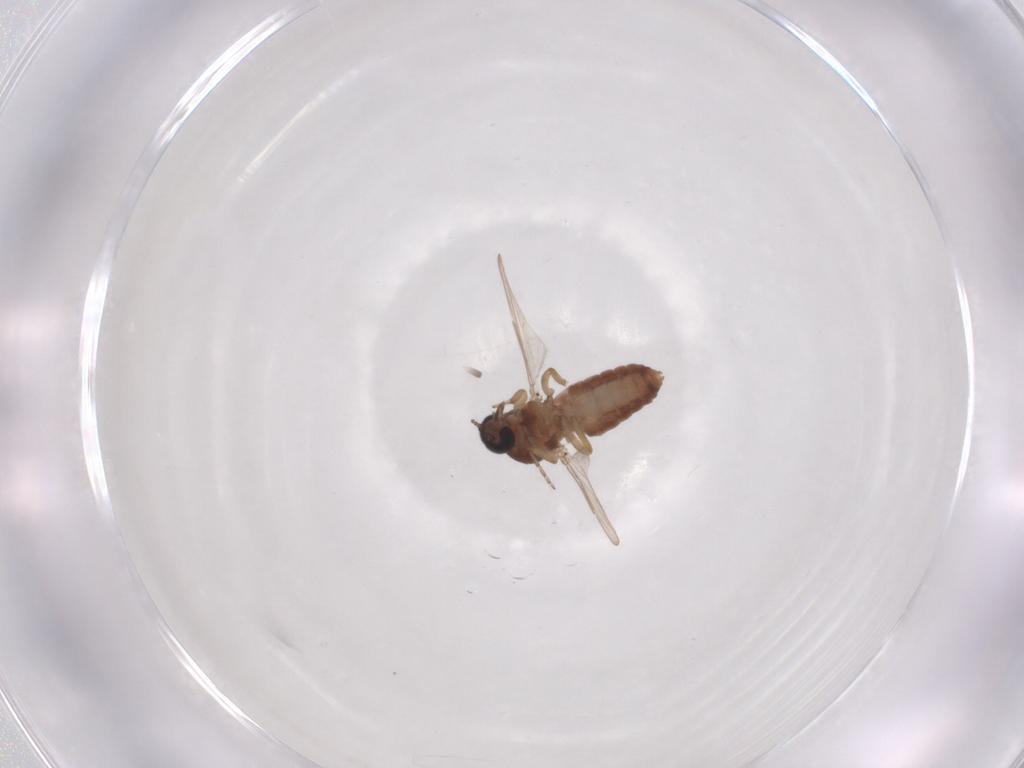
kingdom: Animalia
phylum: Arthropoda
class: Insecta
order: Diptera
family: Ceratopogonidae
